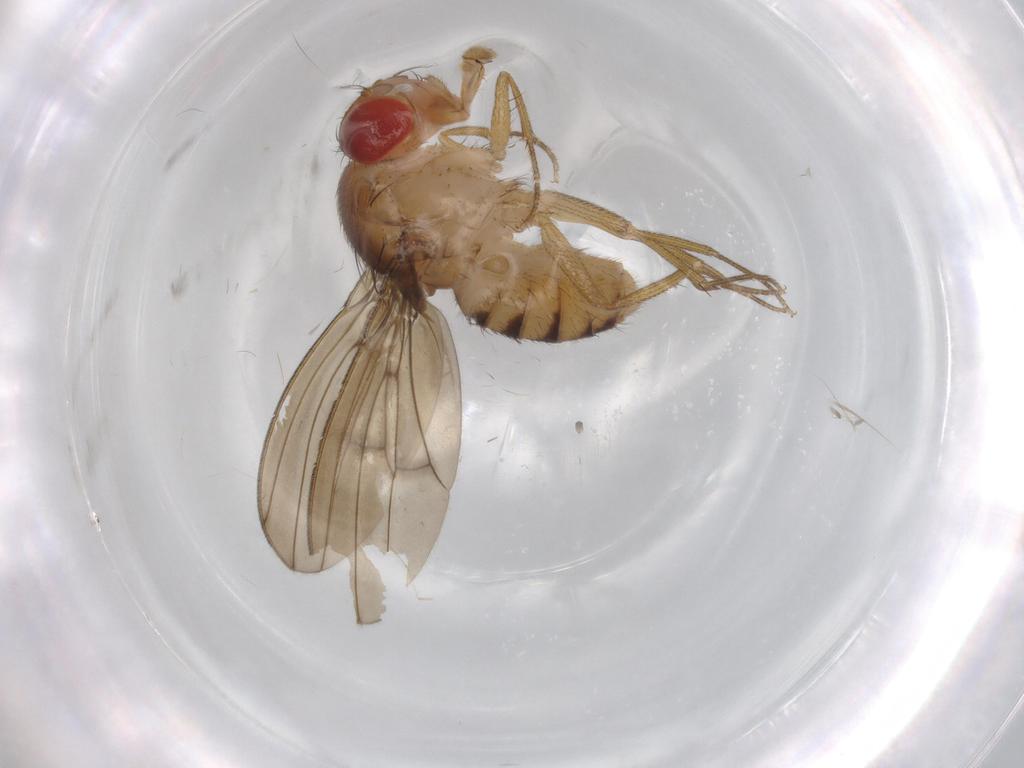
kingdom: Animalia
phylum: Arthropoda
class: Insecta
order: Diptera
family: Drosophilidae
